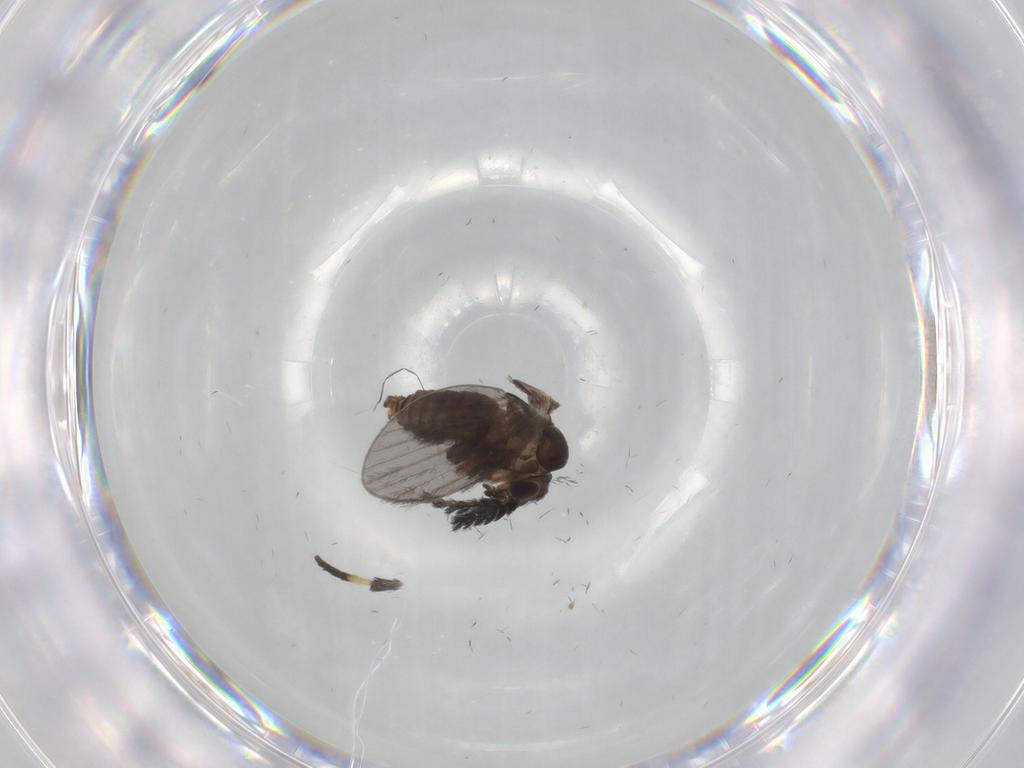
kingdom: Animalia
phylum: Arthropoda
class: Insecta
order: Diptera
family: Psychodidae
